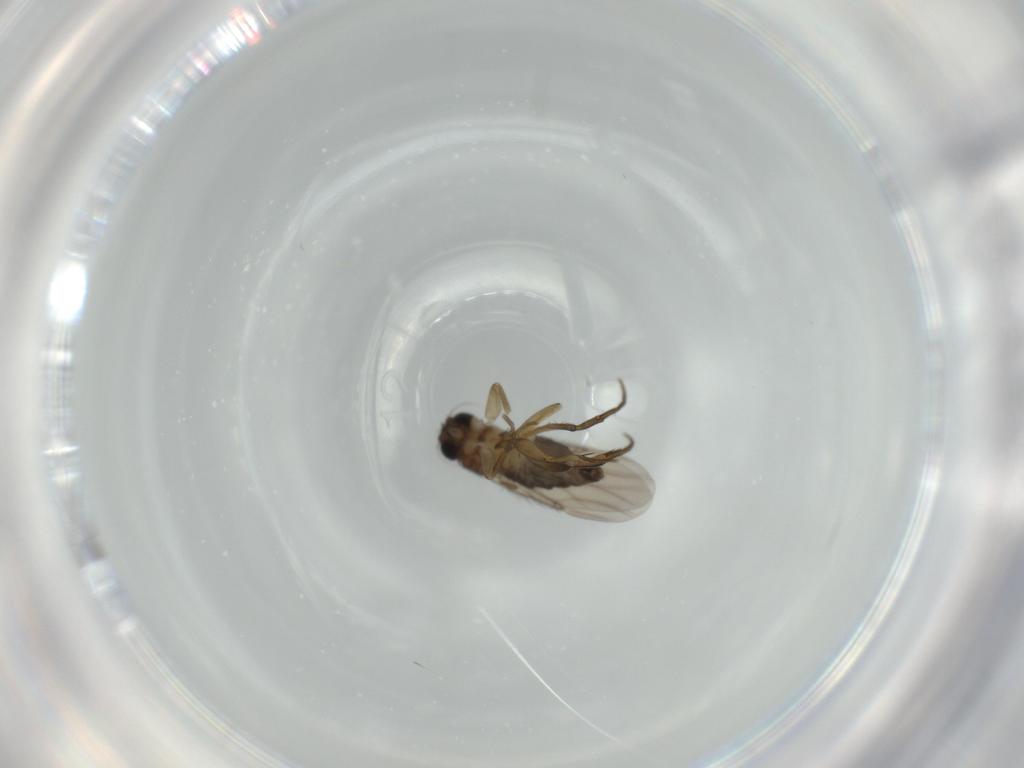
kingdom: Animalia
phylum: Arthropoda
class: Insecta
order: Diptera
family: Phoridae
